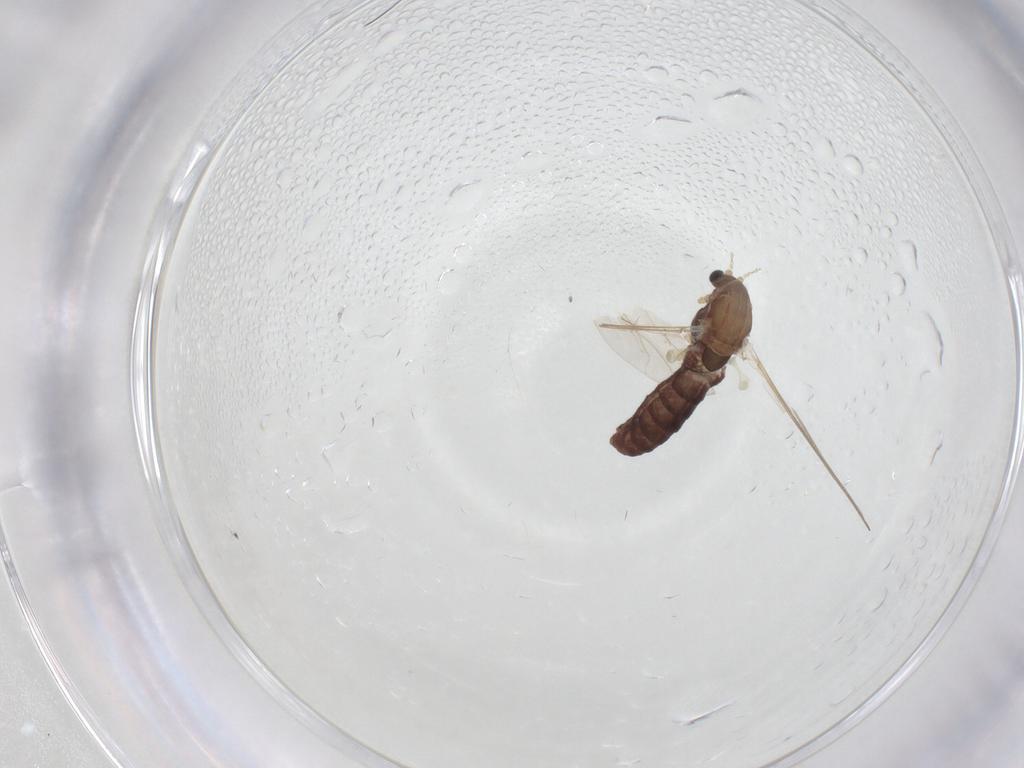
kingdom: Animalia
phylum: Arthropoda
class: Insecta
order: Diptera
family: Chironomidae
